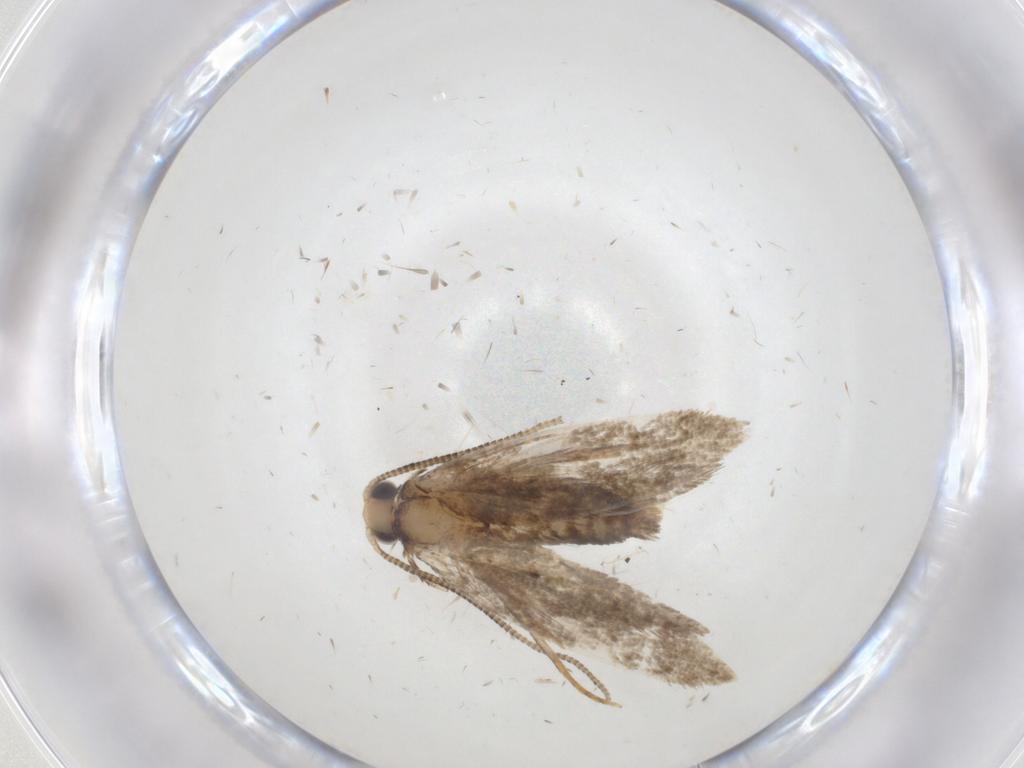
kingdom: Animalia
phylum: Arthropoda
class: Insecta
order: Lepidoptera
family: Tineidae
